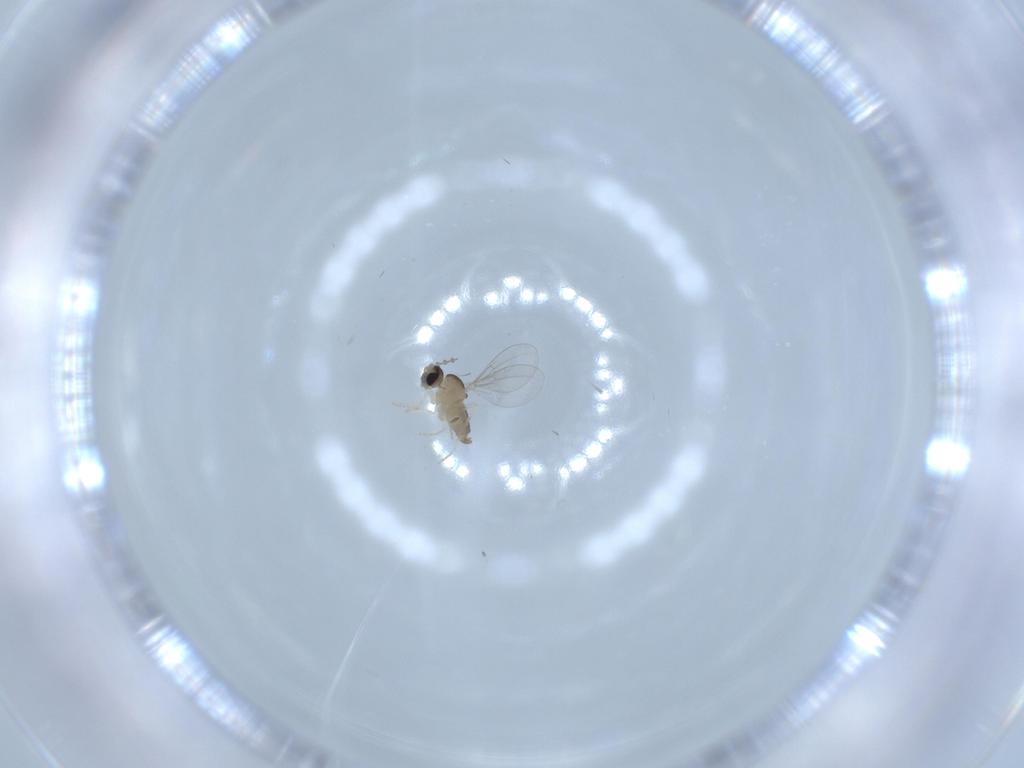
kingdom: Animalia
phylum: Arthropoda
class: Insecta
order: Diptera
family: Cecidomyiidae
